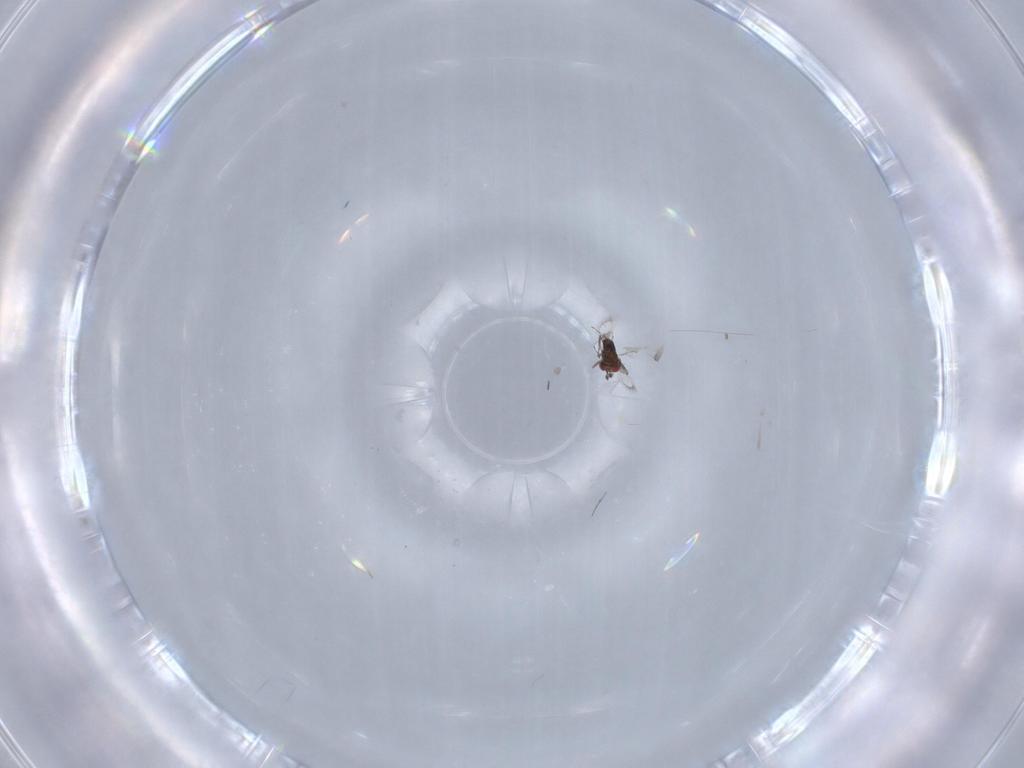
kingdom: Animalia
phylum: Arthropoda
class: Insecta
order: Hymenoptera
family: Trichogrammatidae
